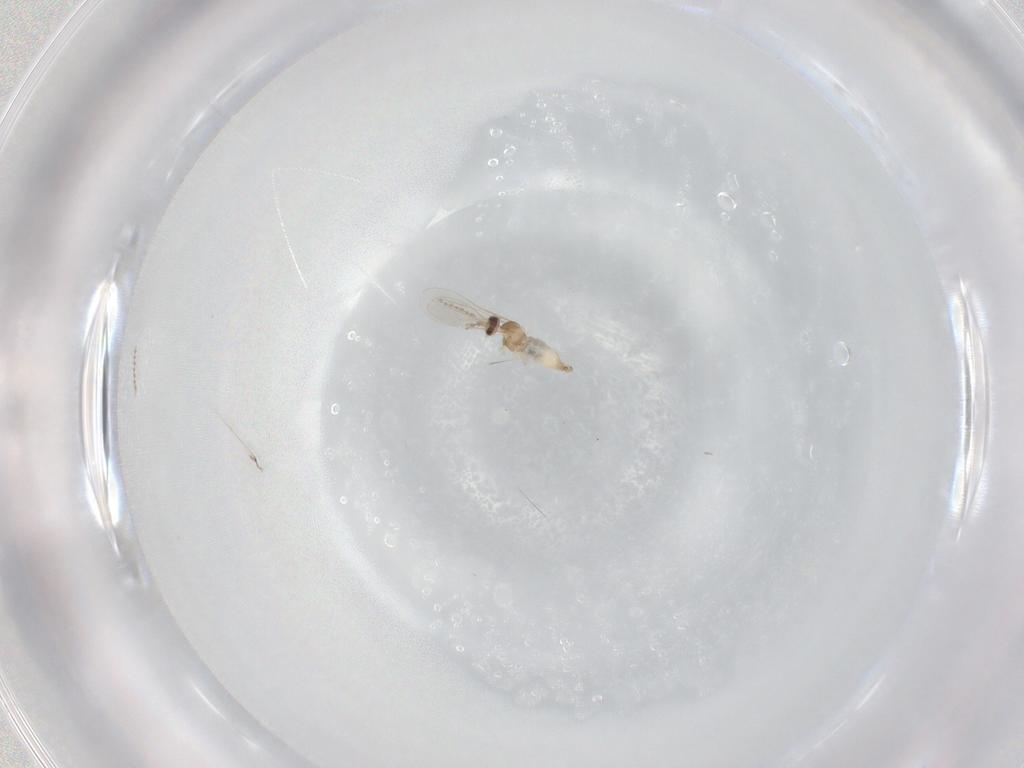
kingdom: Animalia
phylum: Arthropoda
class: Insecta
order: Diptera
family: Cecidomyiidae
